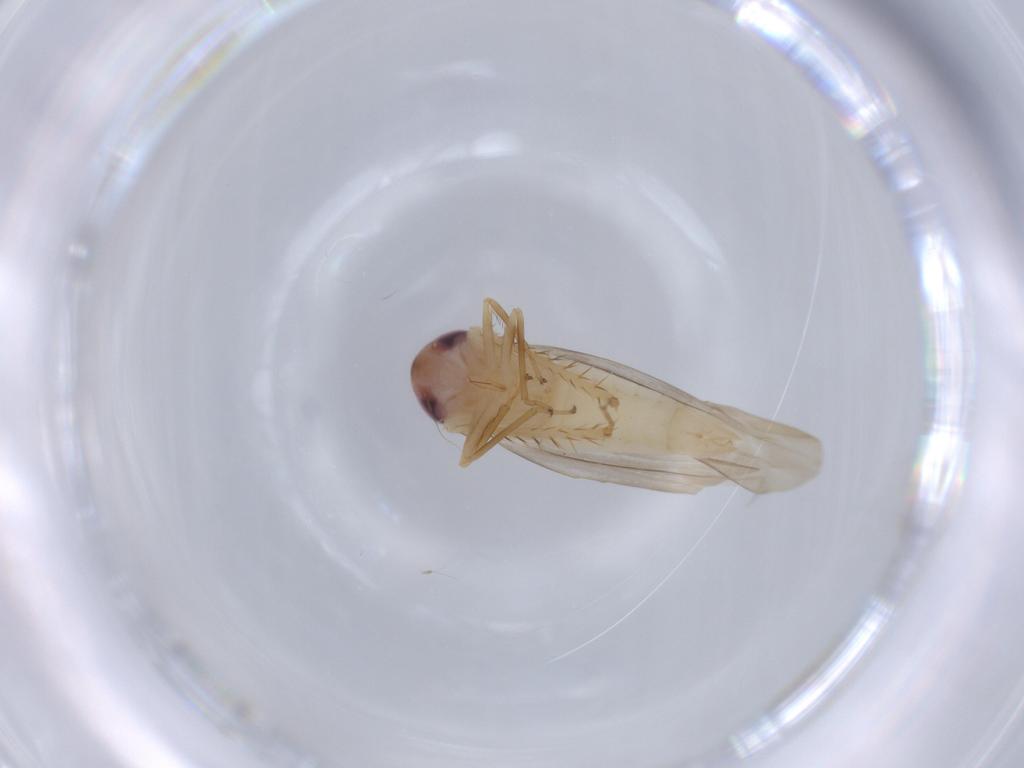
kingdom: Animalia
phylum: Arthropoda
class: Insecta
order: Hemiptera
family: Cicadellidae
